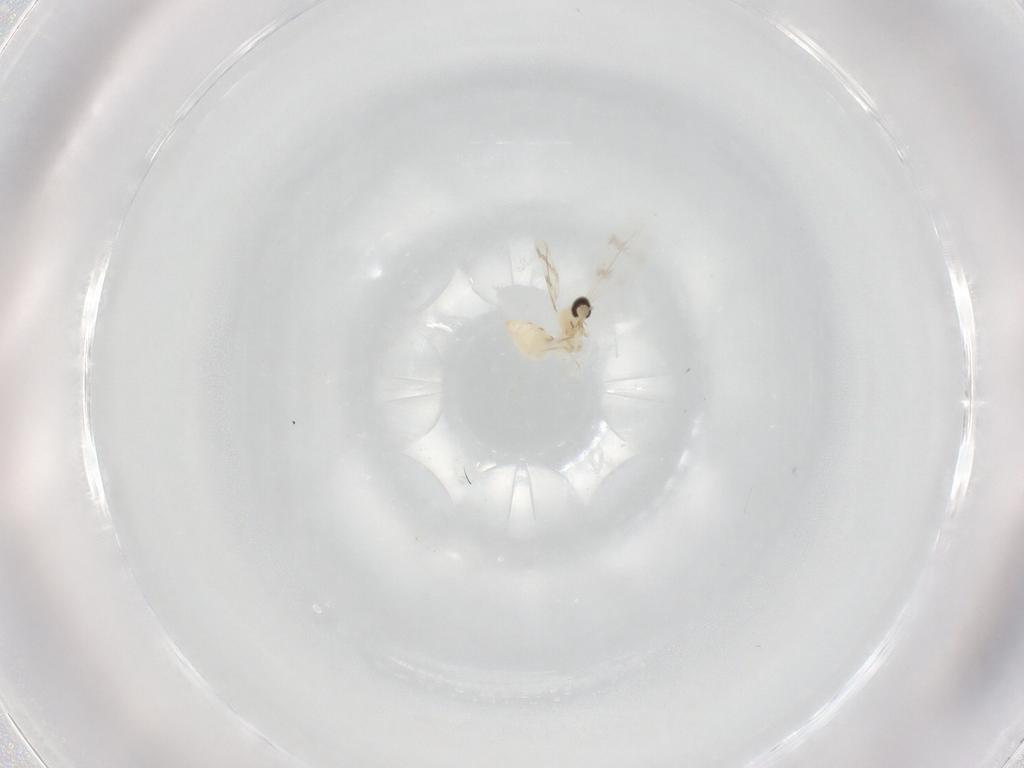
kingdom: Animalia
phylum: Arthropoda
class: Insecta
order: Diptera
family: Cecidomyiidae
